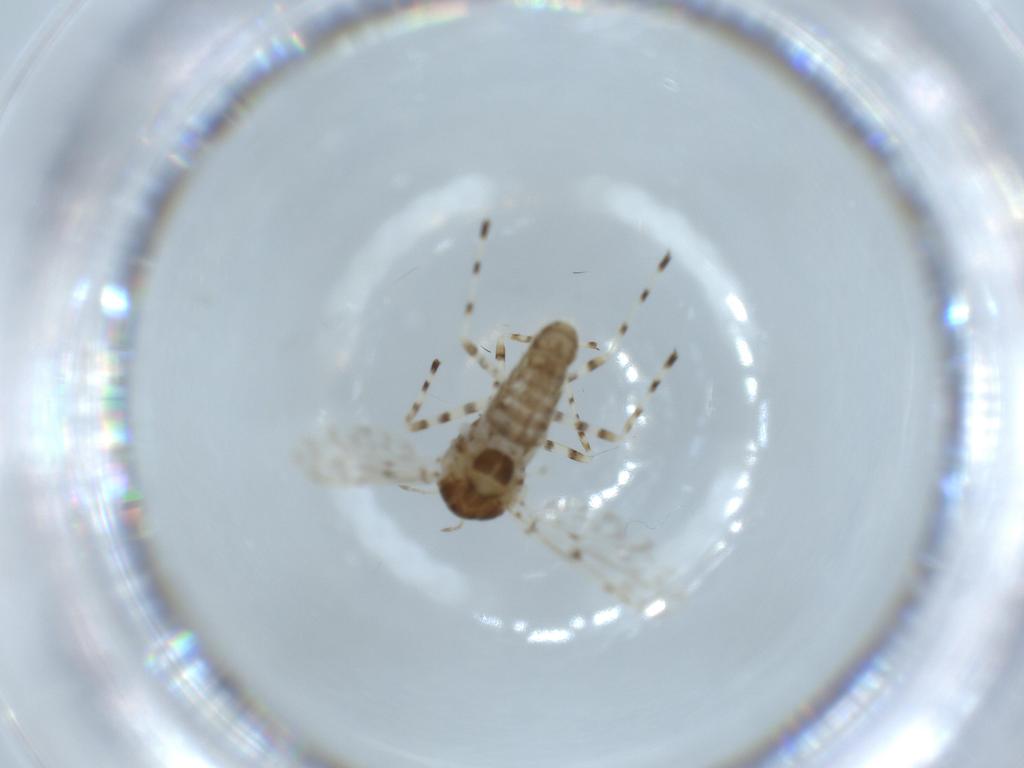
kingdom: Animalia
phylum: Arthropoda
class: Insecta
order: Diptera
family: Chironomidae
